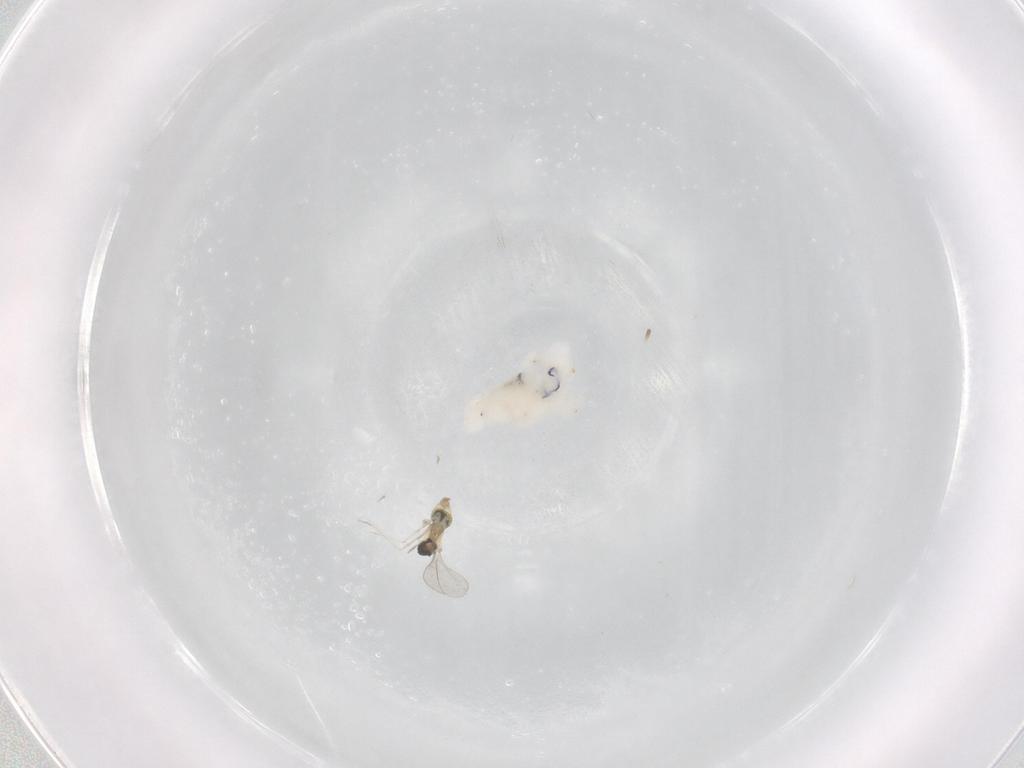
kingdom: Animalia
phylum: Arthropoda
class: Insecta
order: Diptera
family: Cecidomyiidae
